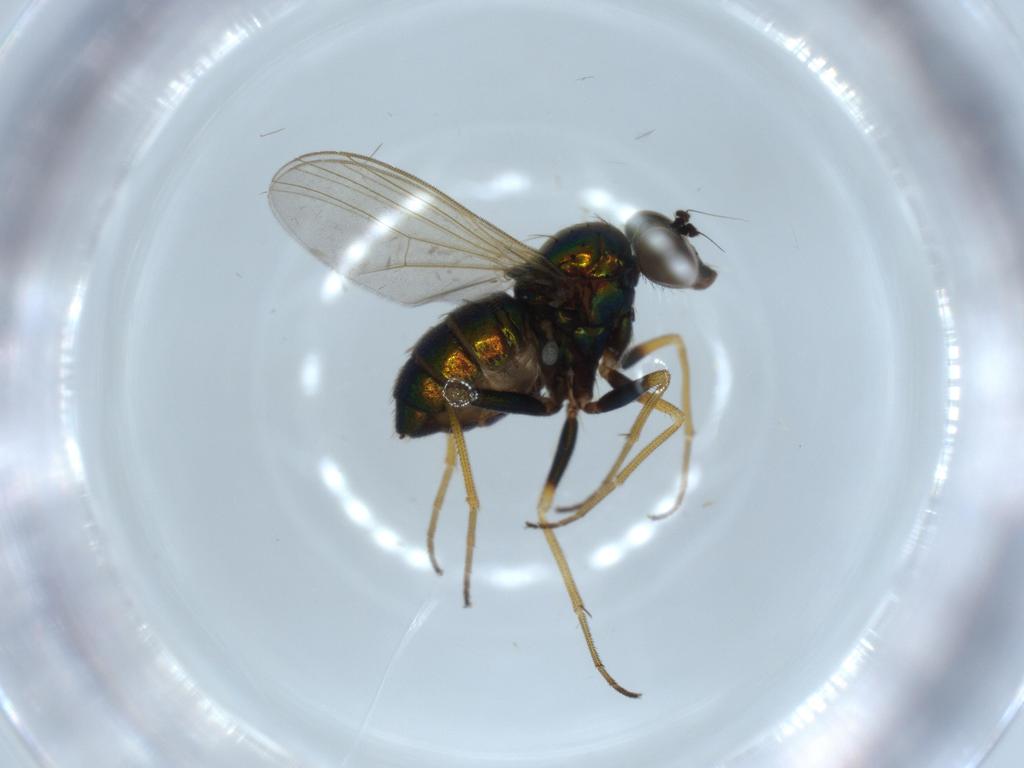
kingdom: Animalia
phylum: Arthropoda
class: Insecta
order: Diptera
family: Dolichopodidae
